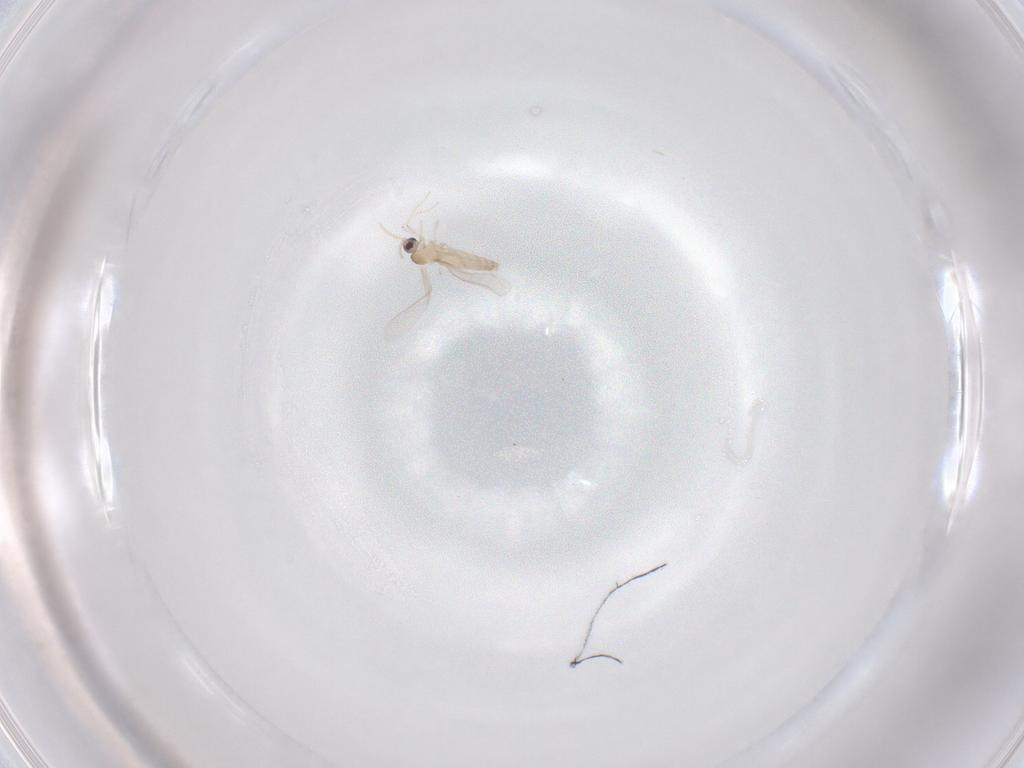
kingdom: Animalia
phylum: Arthropoda
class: Insecta
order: Diptera
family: Cecidomyiidae
